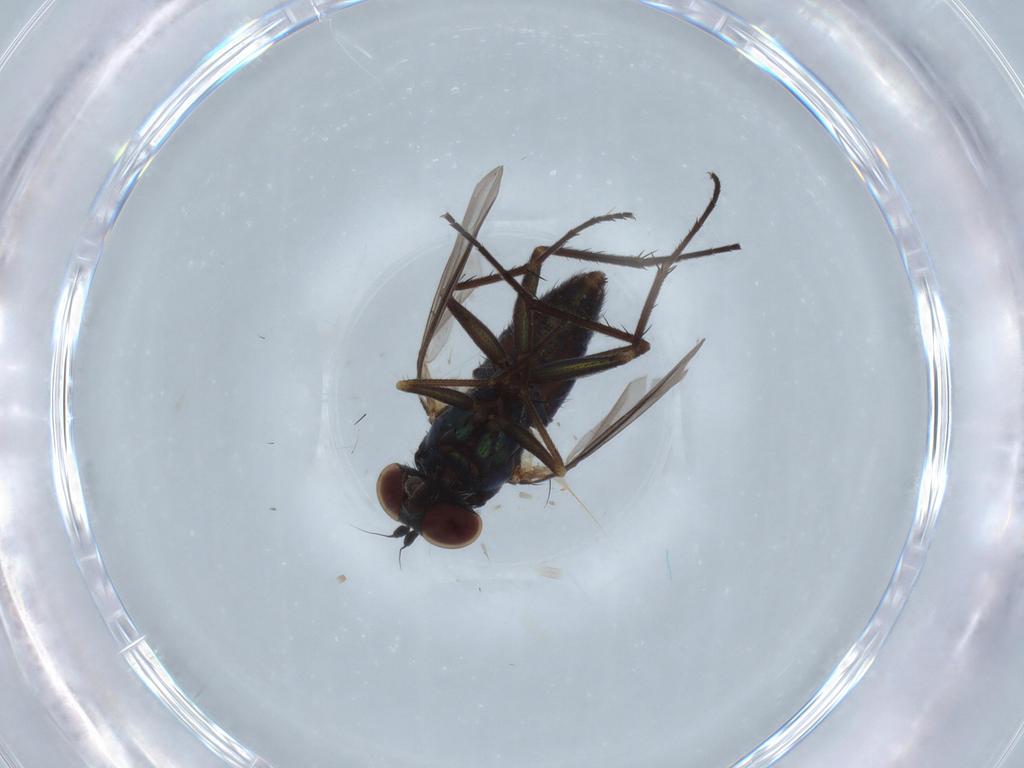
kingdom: Animalia
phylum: Arthropoda
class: Insecta
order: Diptera
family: Dolichopodidae
